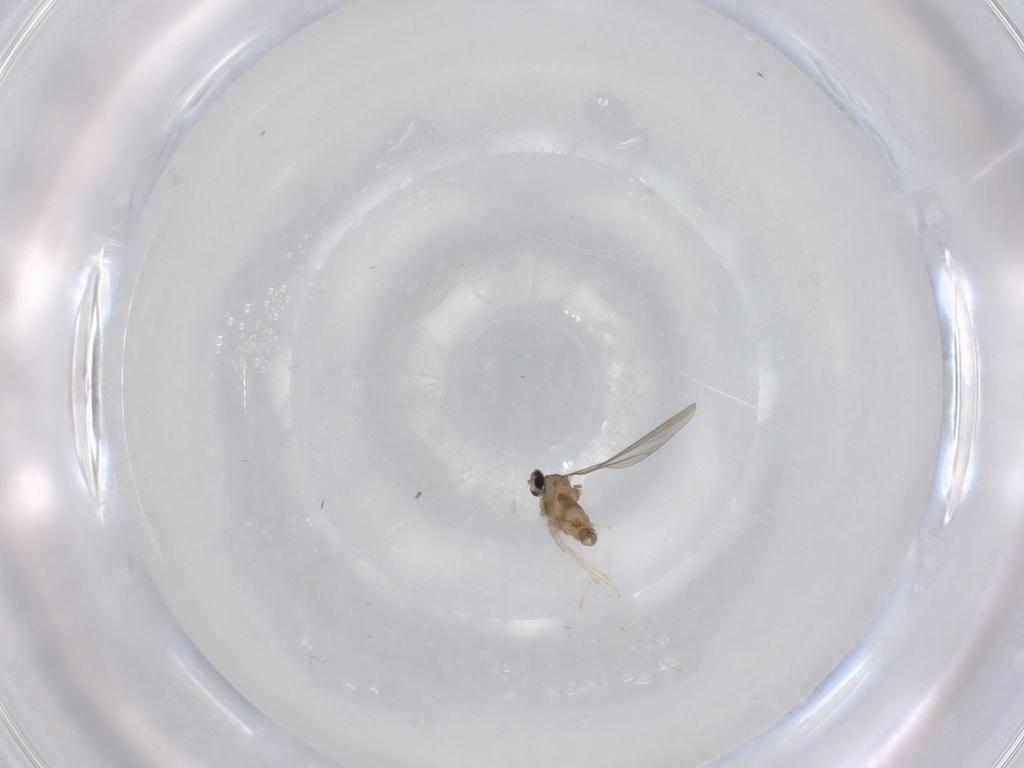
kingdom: Animalia
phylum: Arthropoda
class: Insecta
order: Diptera
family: Cecidomyiidae
